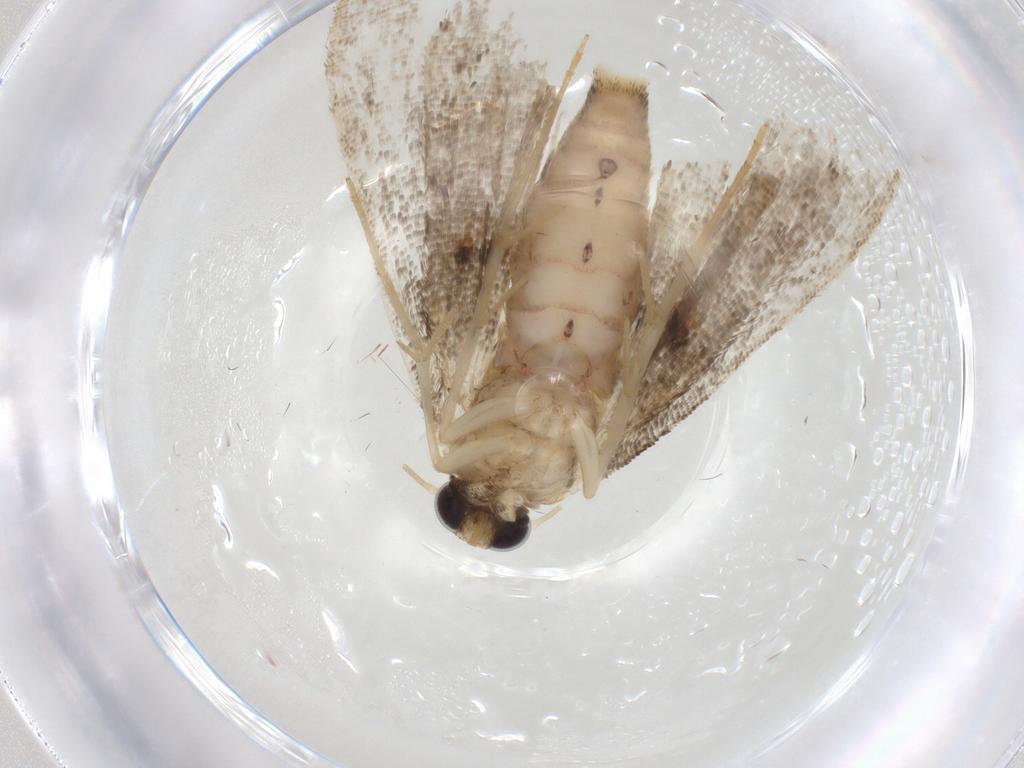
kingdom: Animalia
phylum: Arthropoda
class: Insecta
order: Lepidoptera
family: Erebidae
